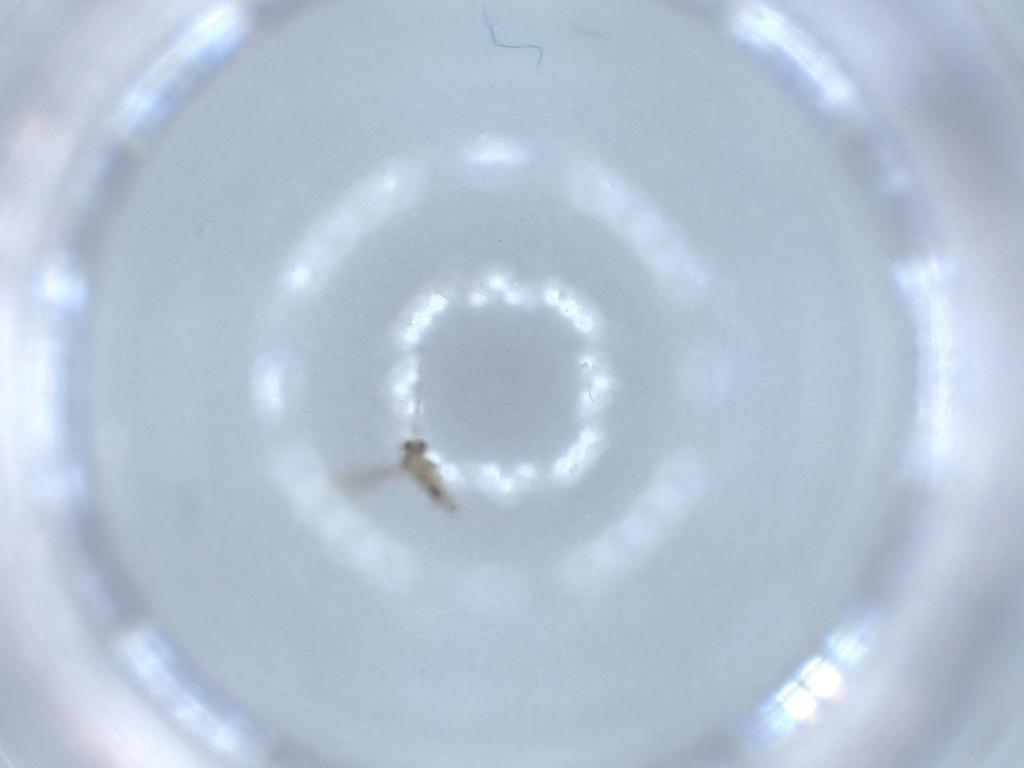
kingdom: Animalia
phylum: Arthropoda
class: Insecta
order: Diptera
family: Cecidomyiidae
